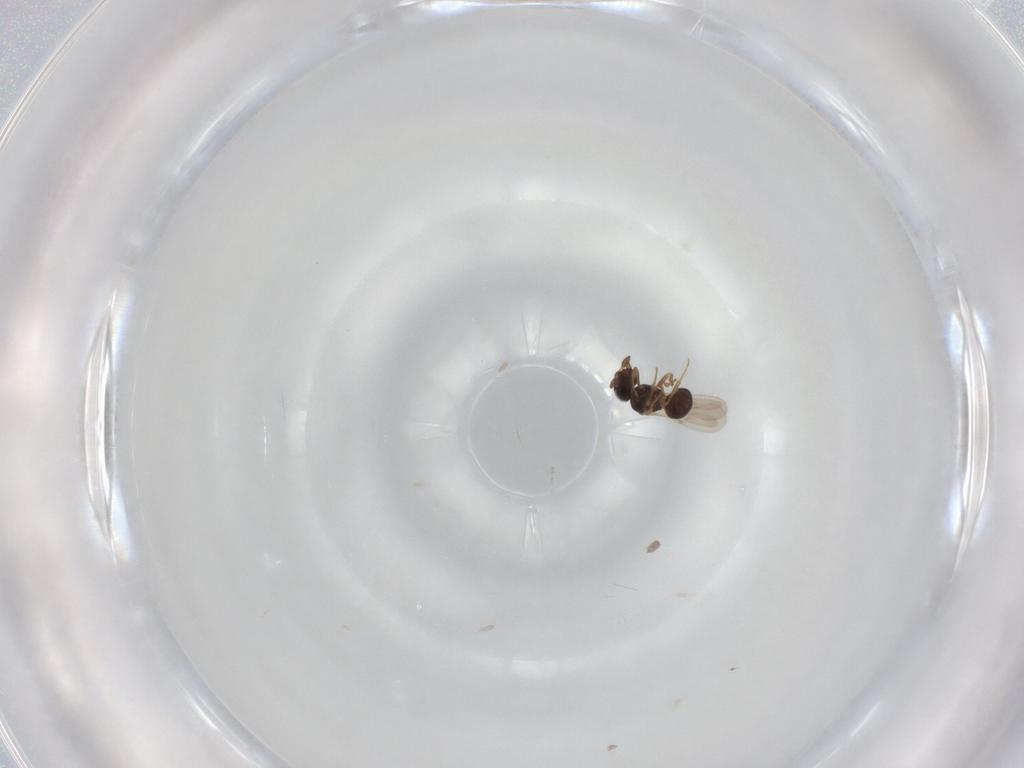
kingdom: Animalia
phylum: Arthropoda
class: Insecta
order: Hymenoptera
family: Scelionidae
